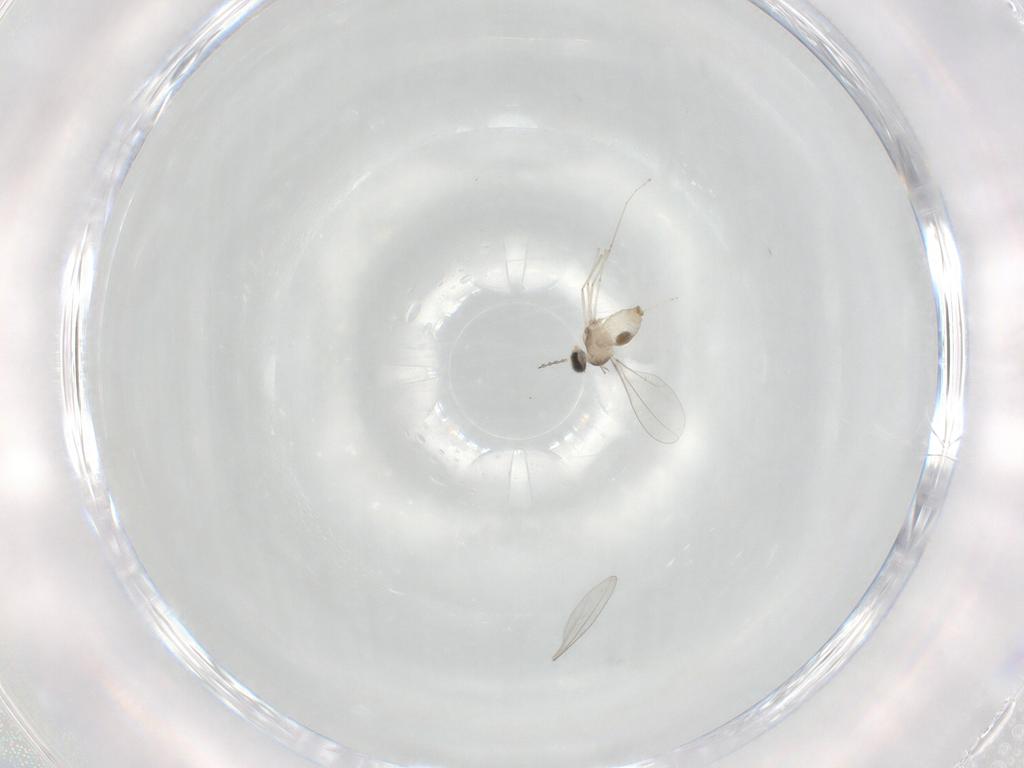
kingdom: Animalia
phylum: Arthropoda
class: Insecta
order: Diptera
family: Cecidomyiidae
